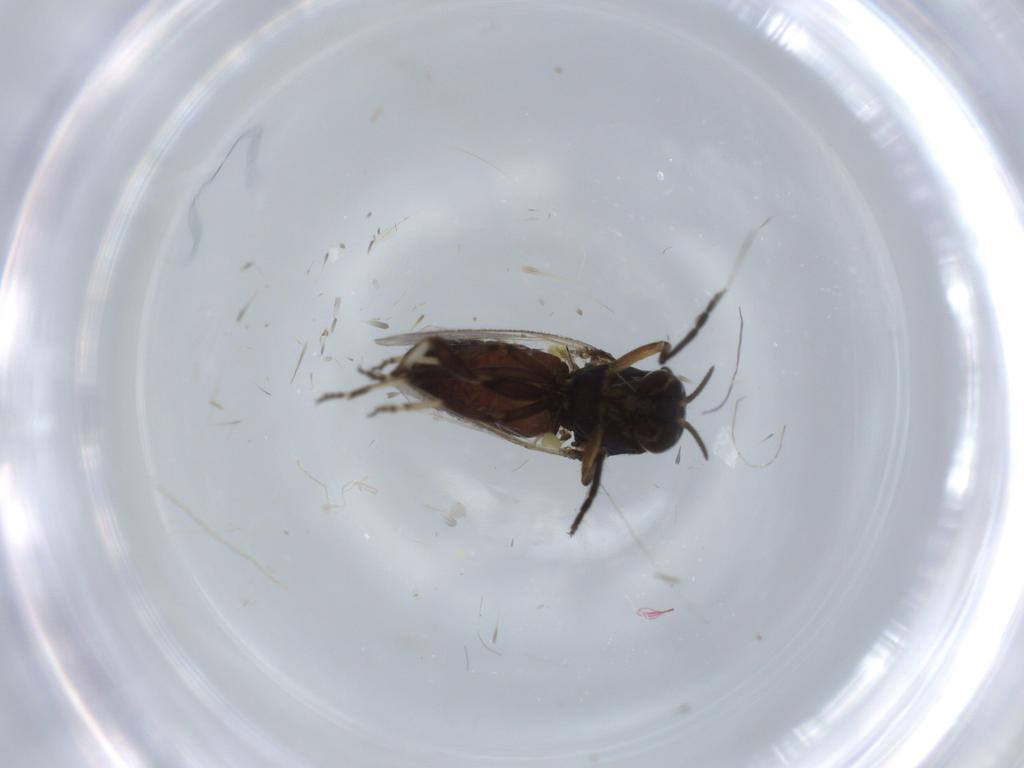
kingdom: Animalia
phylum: Arthropoda
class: Insecta
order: Diptera
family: Simuliidae
